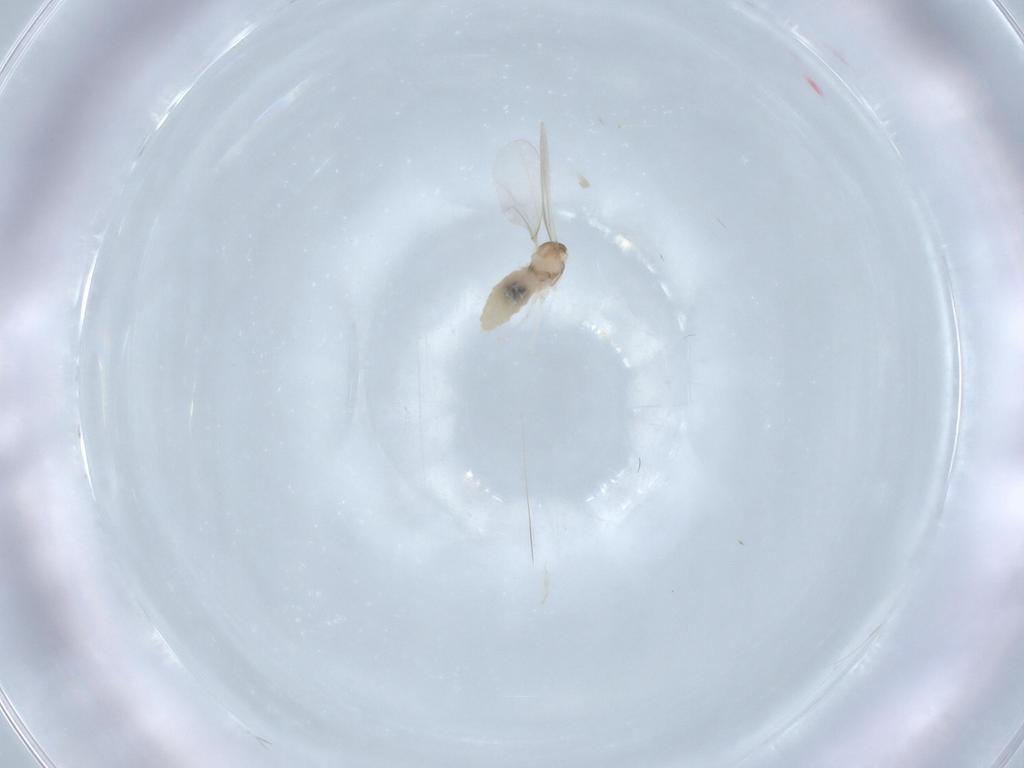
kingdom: Animalia
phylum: Arthropoda
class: Insecta
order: Diptera
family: Cecidomyiidae
